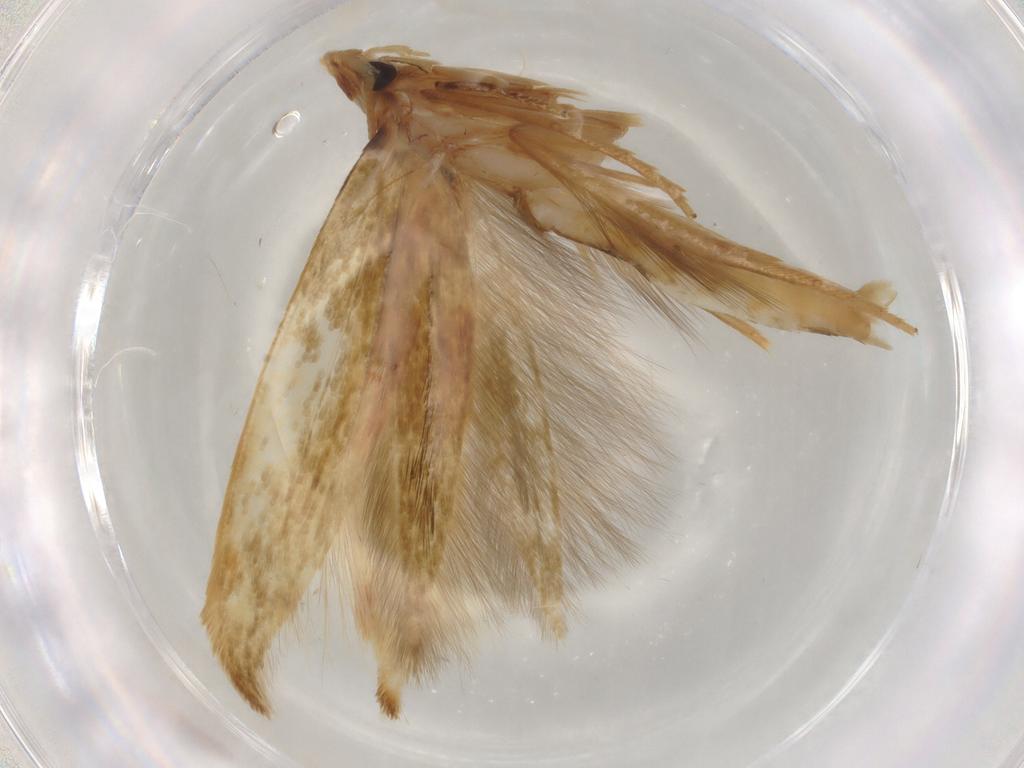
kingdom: Animalia
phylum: Arthropoda
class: Insecta
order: Lepidoptera
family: Tineidae
